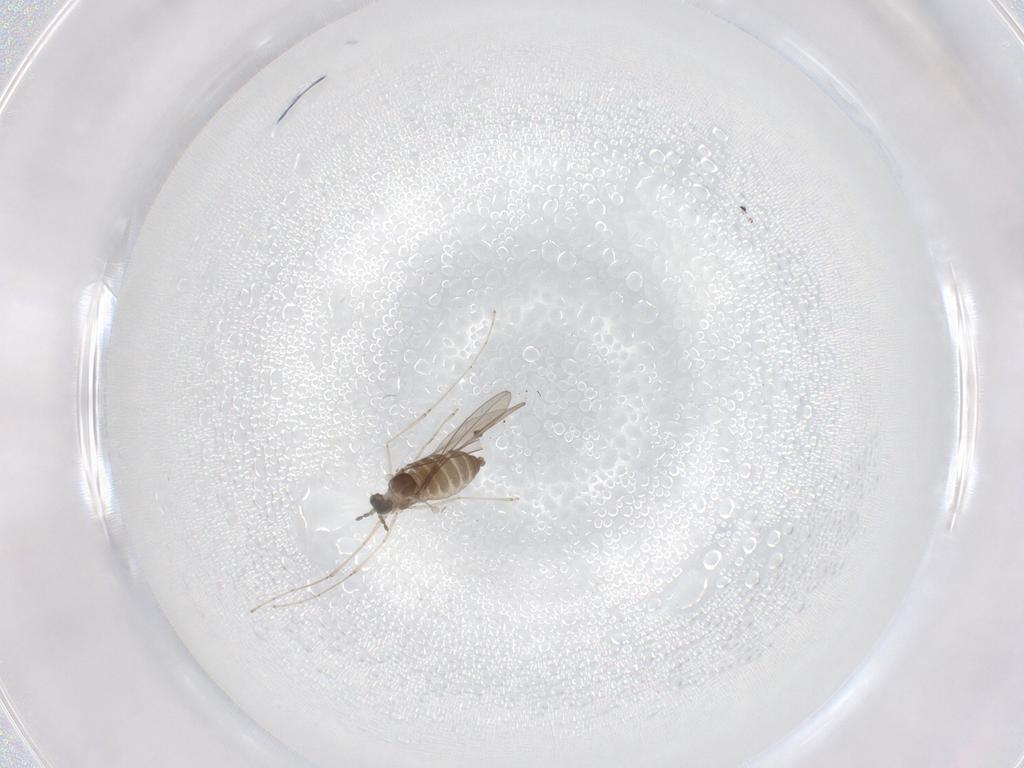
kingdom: Animalia
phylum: Arthropoda
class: Insecta
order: Diptera
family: Cecidomyiidae
